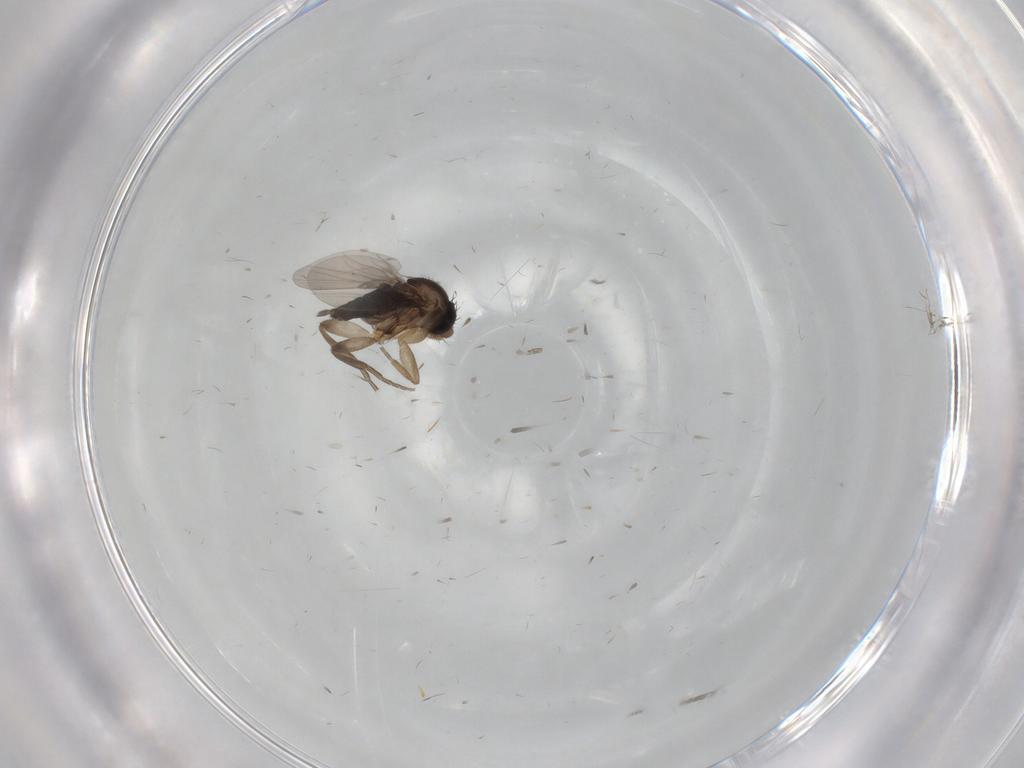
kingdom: Animalia
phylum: Arthropoda
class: Insecta
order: Diptera
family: Phoridae
